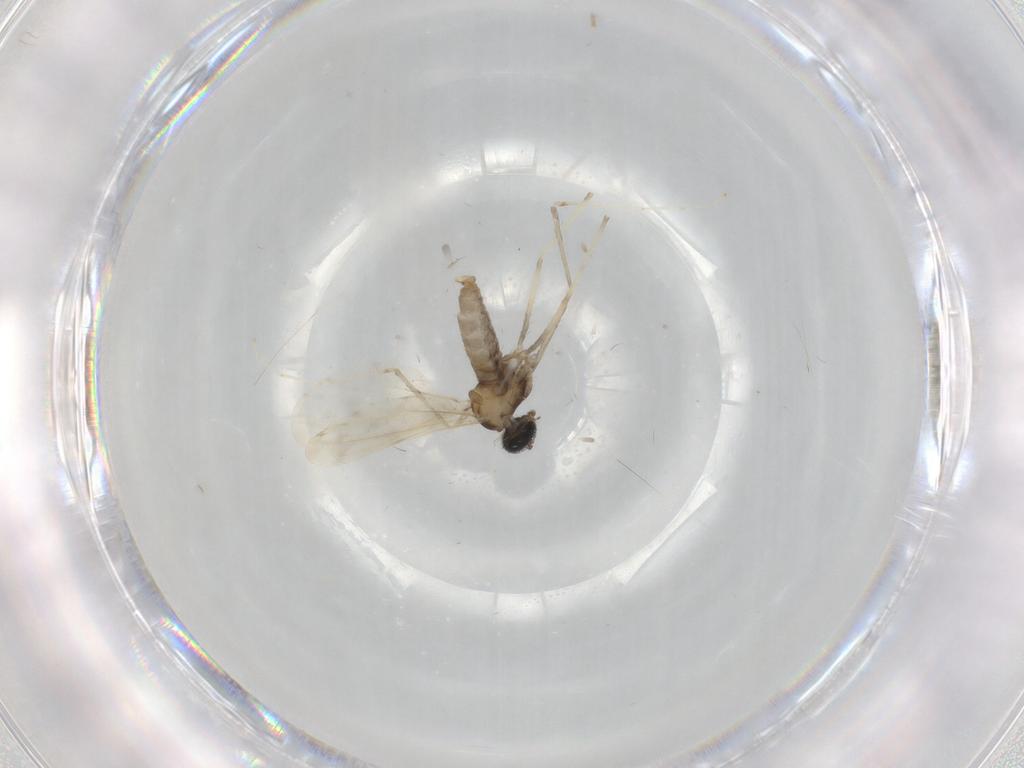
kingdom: Animalia
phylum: Arthropoda
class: Insecta
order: Diptera
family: Cecidomyiidae
